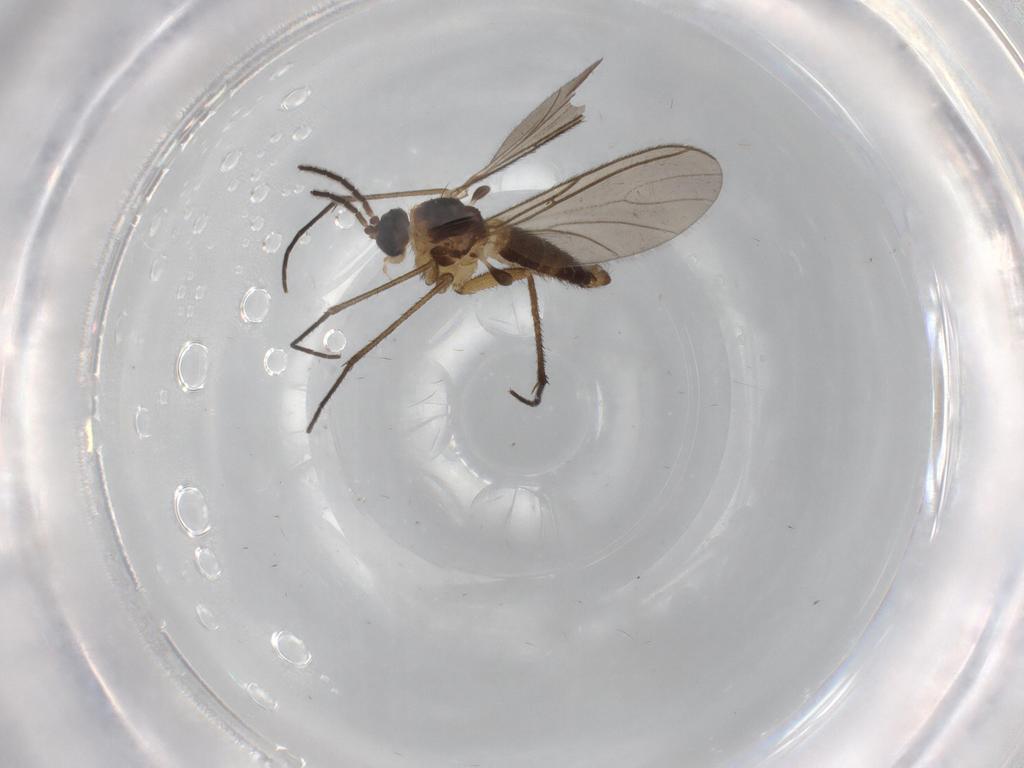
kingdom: Animalia
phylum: Arthropoda
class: Insecta
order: Diptera
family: Sciaridae
